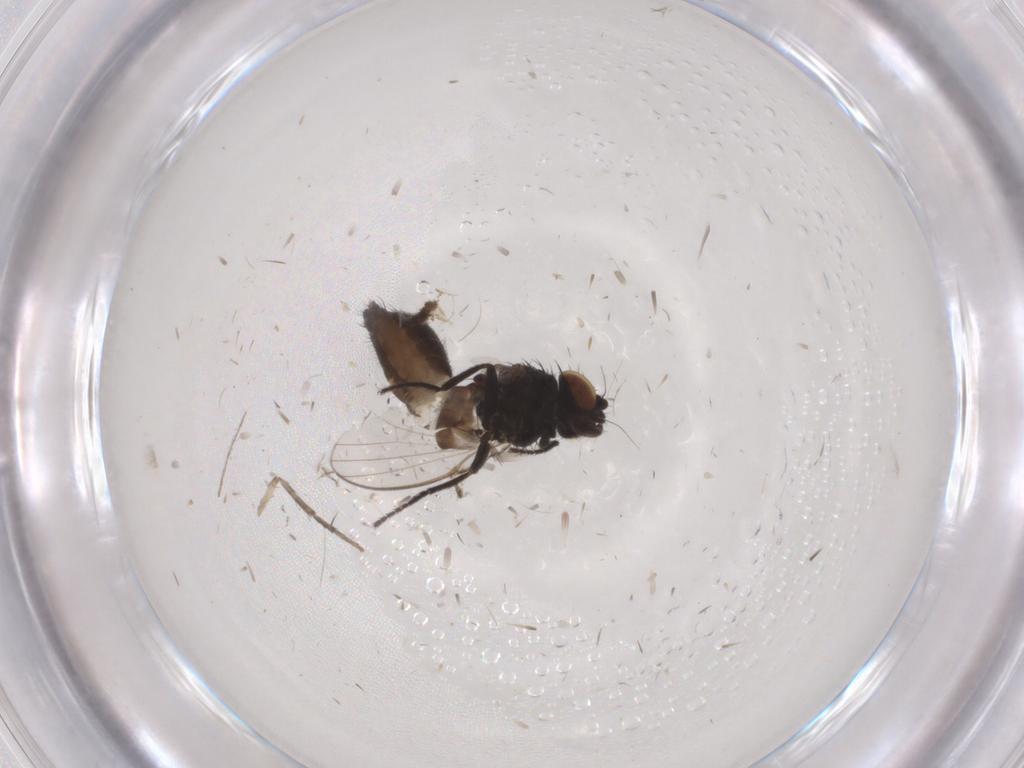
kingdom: Animalia
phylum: Arthropoda
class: Insecta
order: Diptera
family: Milichiidae
